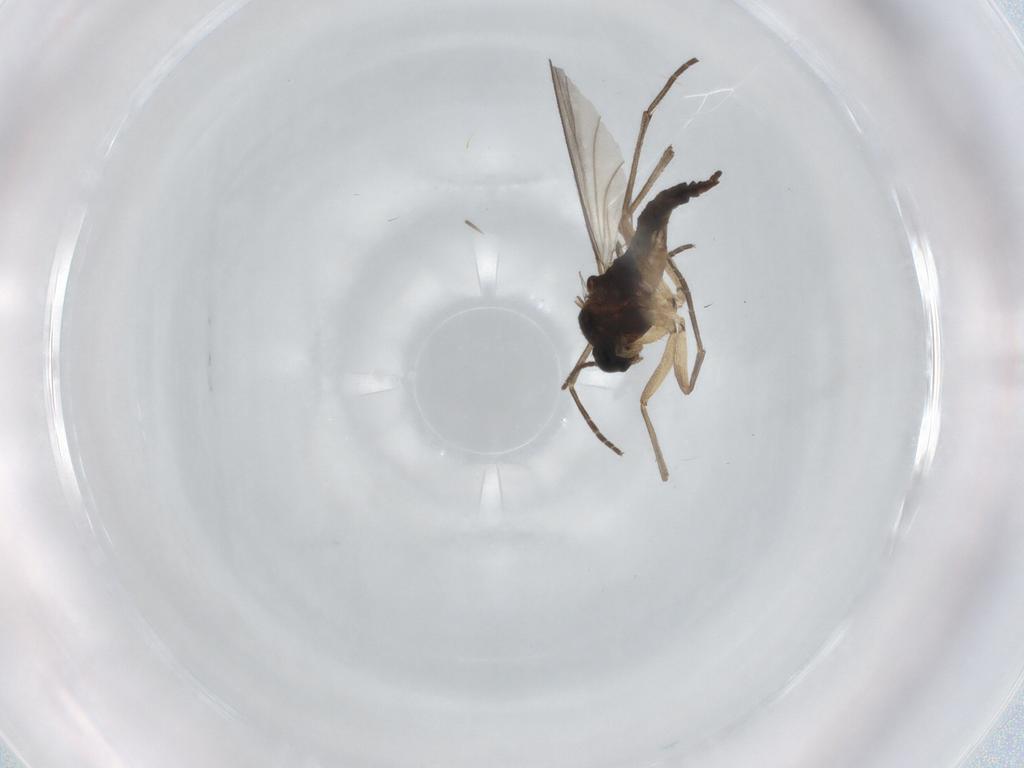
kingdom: Animalia
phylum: Arthropoda
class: Insecta
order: Diptera
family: Sciaridae
